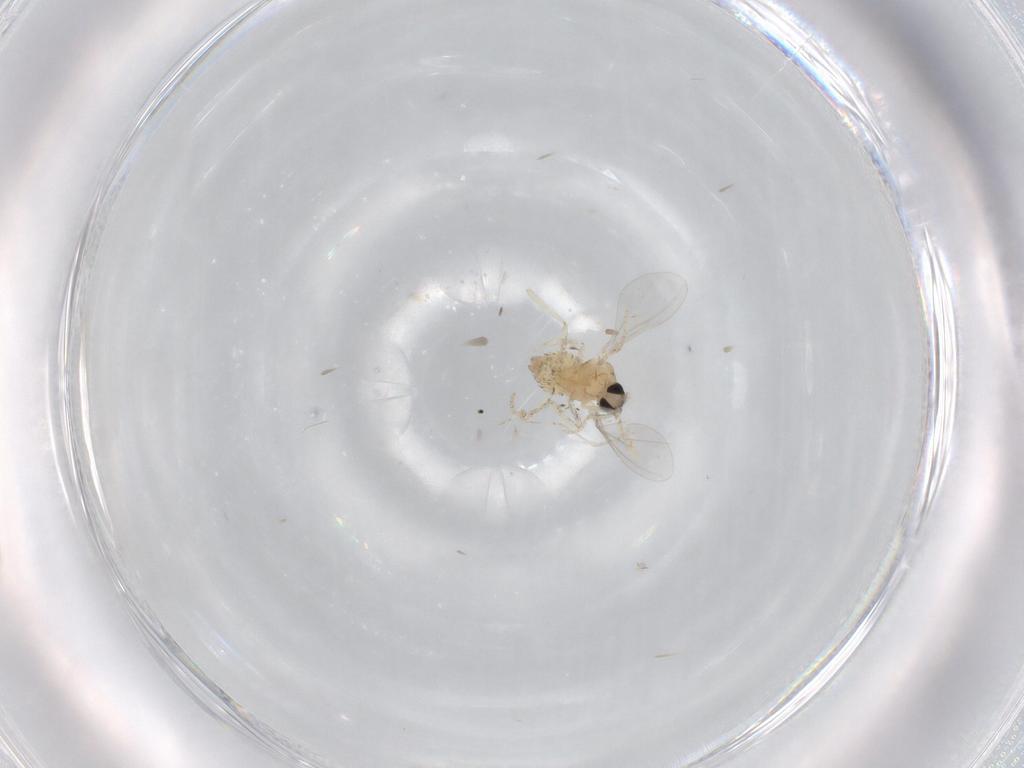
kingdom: Animalia
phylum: Arthropoda
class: Insecta
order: Diptera
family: Cecidomyiidae
